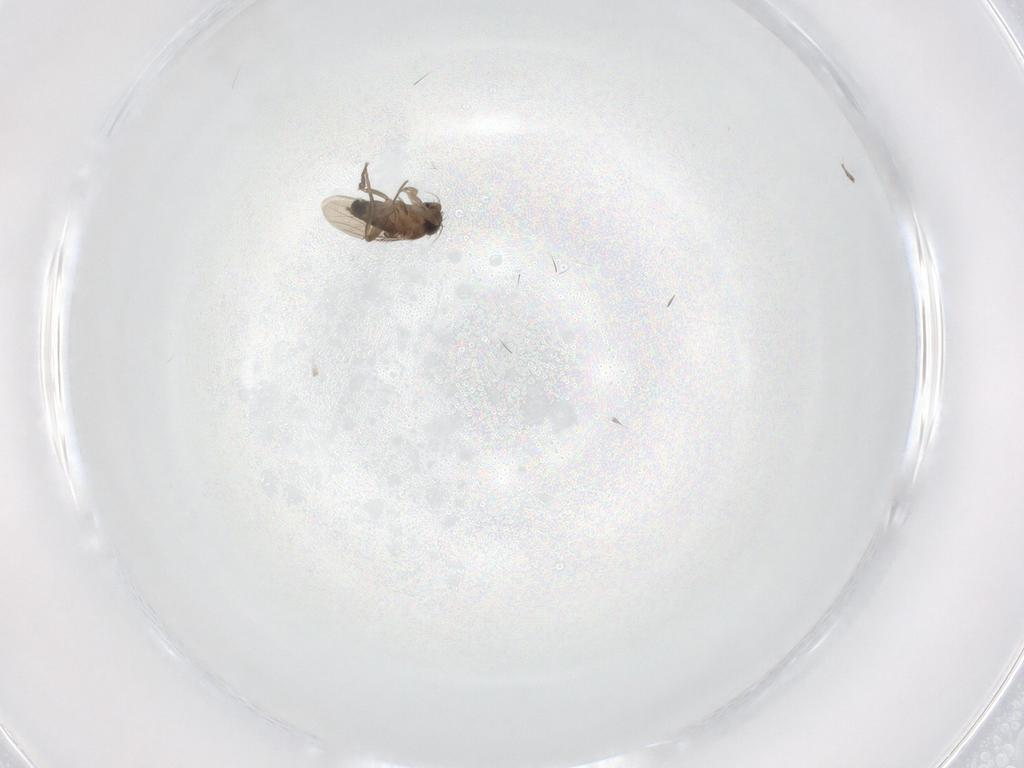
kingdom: Animalia
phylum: Arthropoda
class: Insecta
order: Diptera
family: Phoridae
